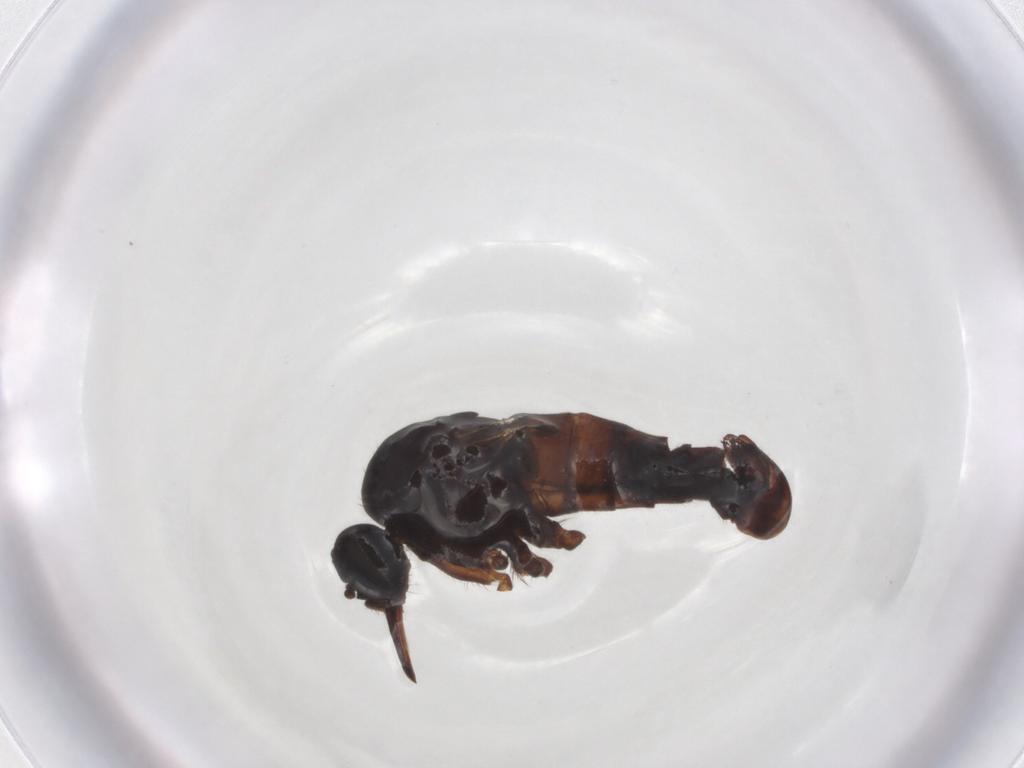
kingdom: Animalia
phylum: Arthropoda
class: Insecta
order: Diptera
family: Empididae
